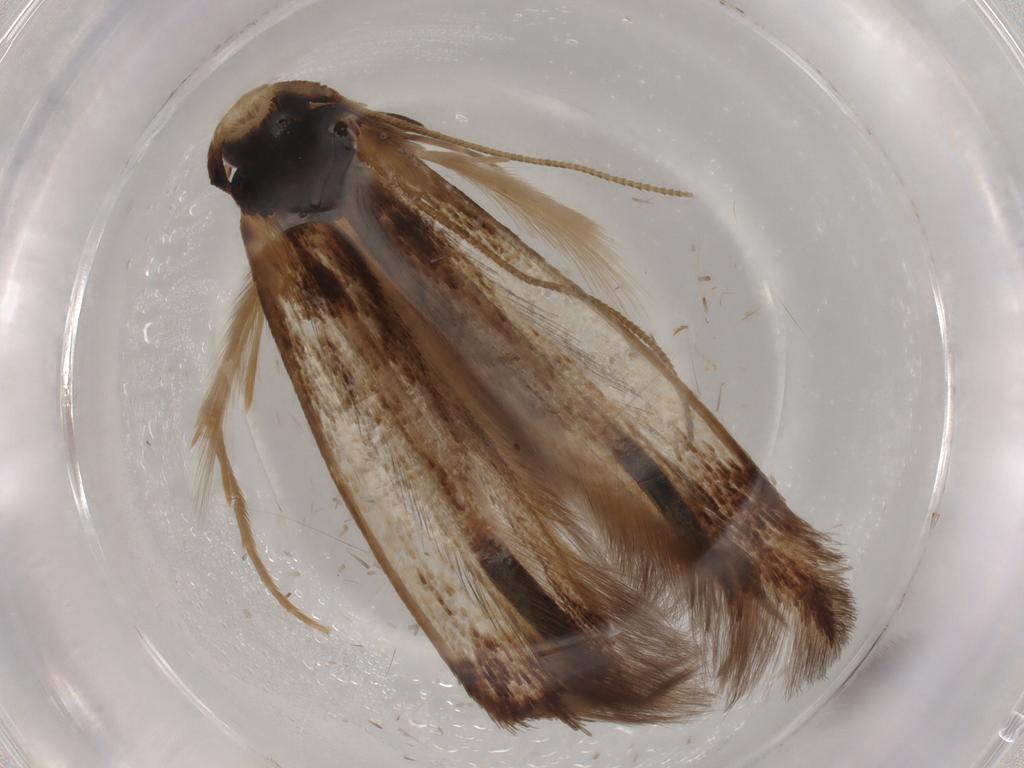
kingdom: Animalia
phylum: Arthropoda
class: Insecta
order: Lepidoptera
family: Tineidae
